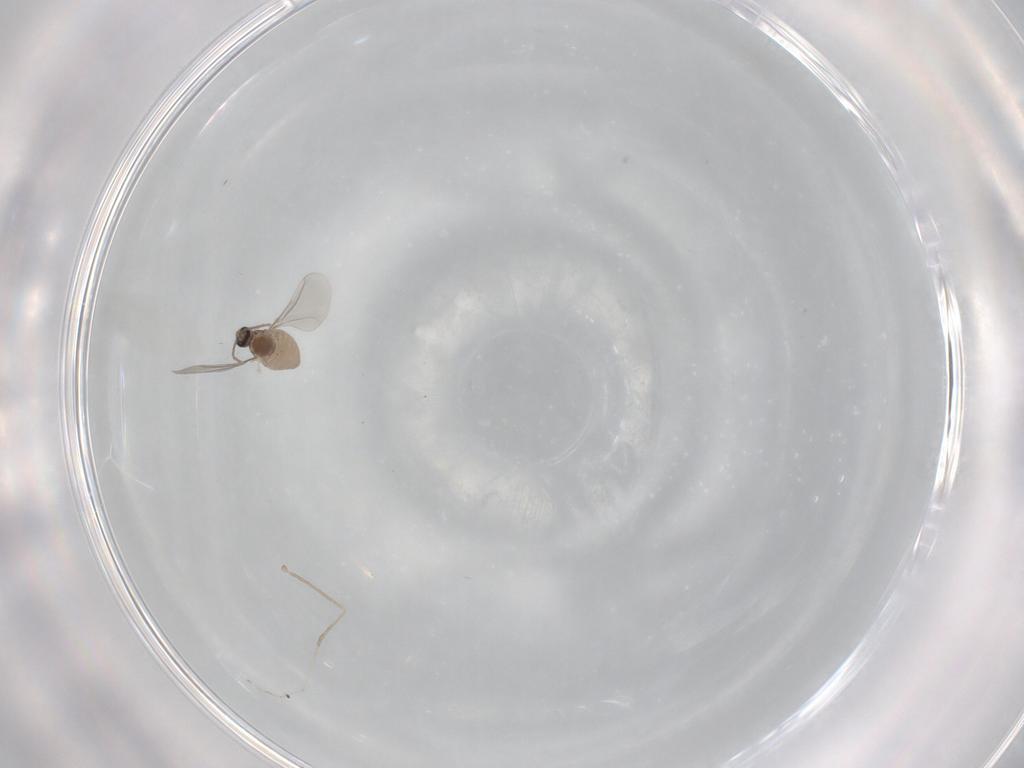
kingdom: Animalia
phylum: Arthropoda
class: Insecta
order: Diptera
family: Cecidomyiidae
